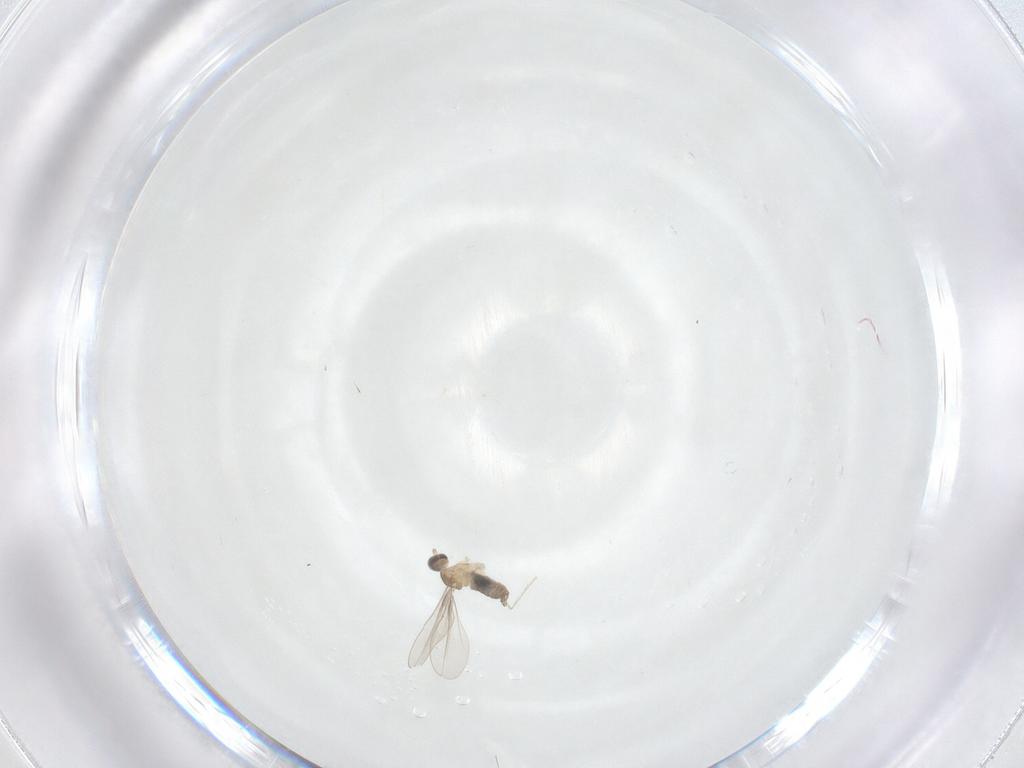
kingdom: Animalia
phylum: Arthropoda
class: Insecta
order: Diptera
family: Cecidomyiidae
